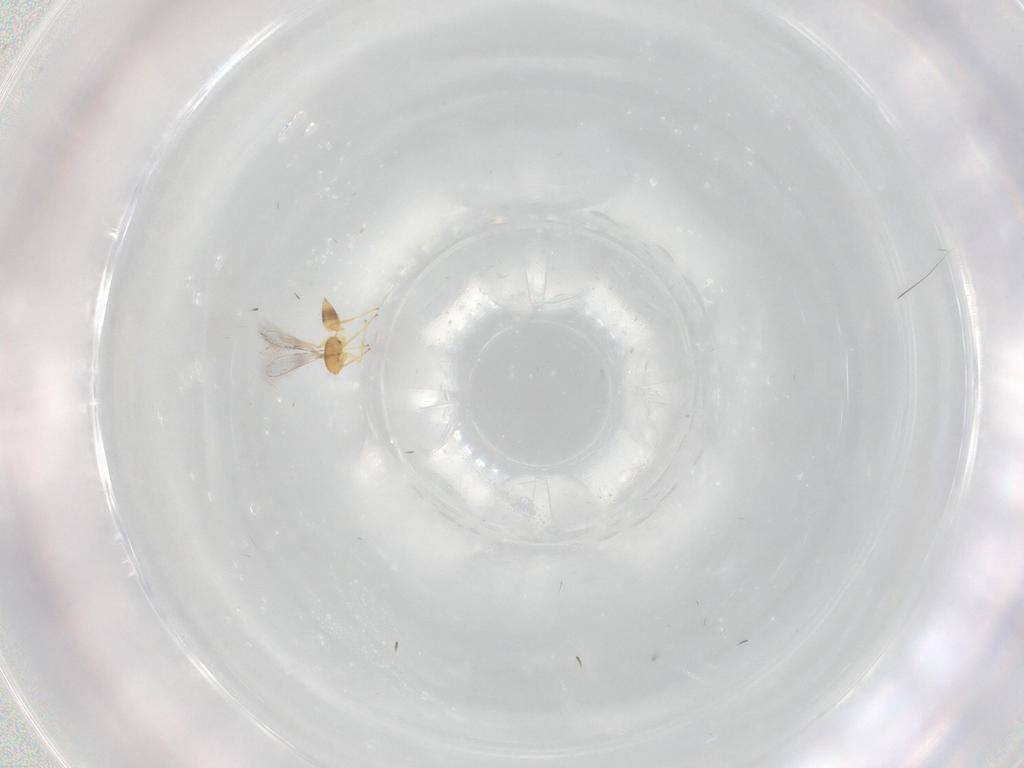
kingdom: Animalia
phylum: Arthropoda
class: Insecta
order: Hymenoptera
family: Mymaridae
